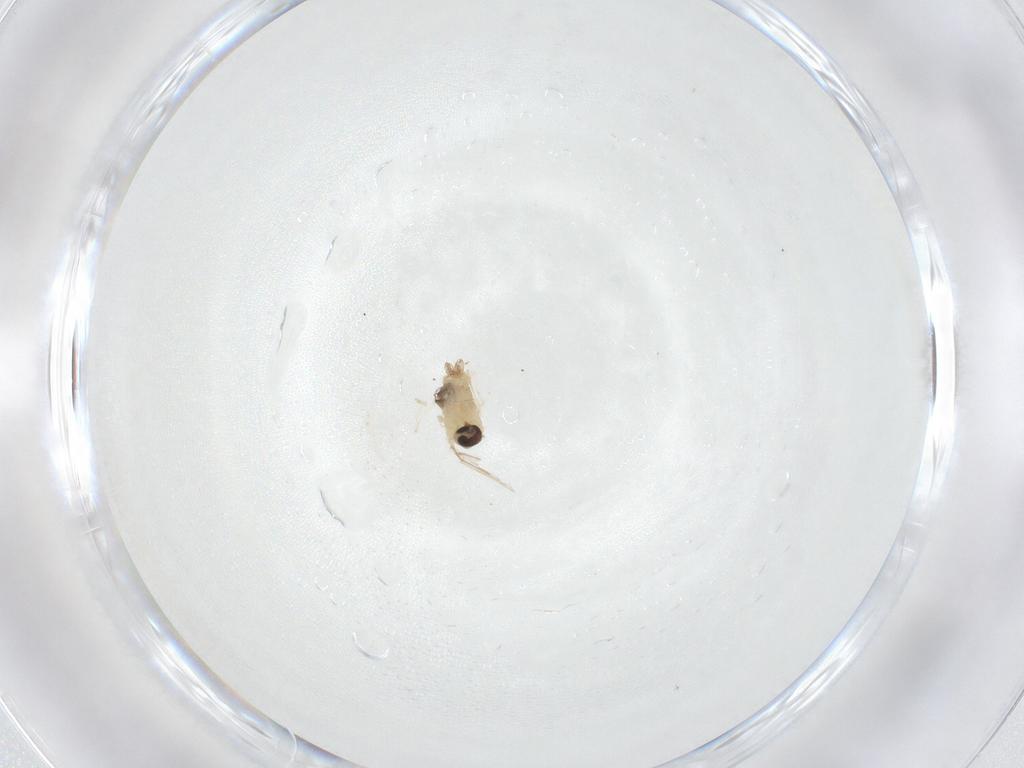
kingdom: Animalia
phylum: Arthropoda
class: Insecta
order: Diptera
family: Cecidomyiidae
